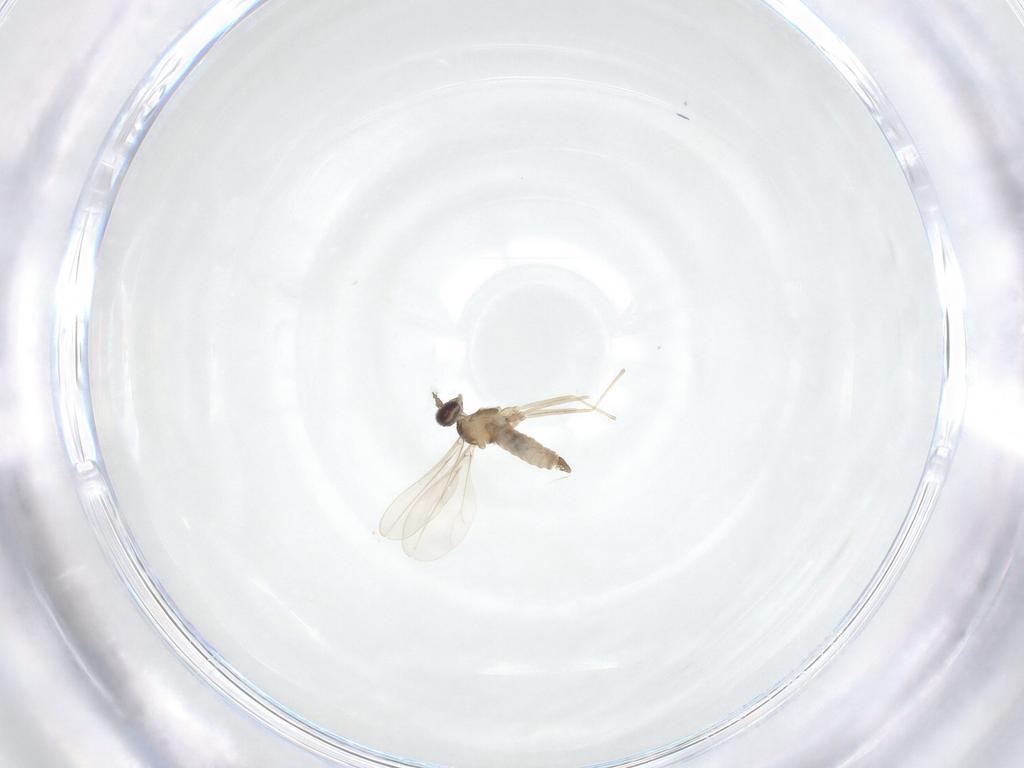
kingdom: Animalia
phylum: Arthropoda
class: Insecta
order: Diptera
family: Cecidomyiidae
